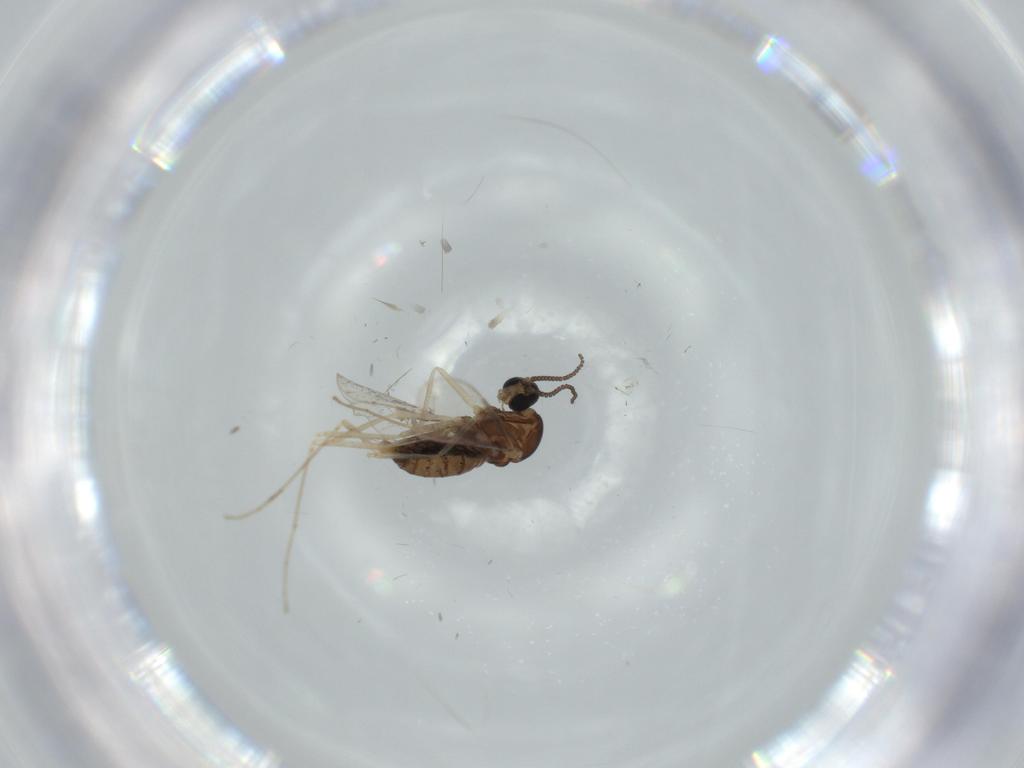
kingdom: Animalia
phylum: Arthropoda
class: Insecta
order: Diptera
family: Cecidomyiidae
